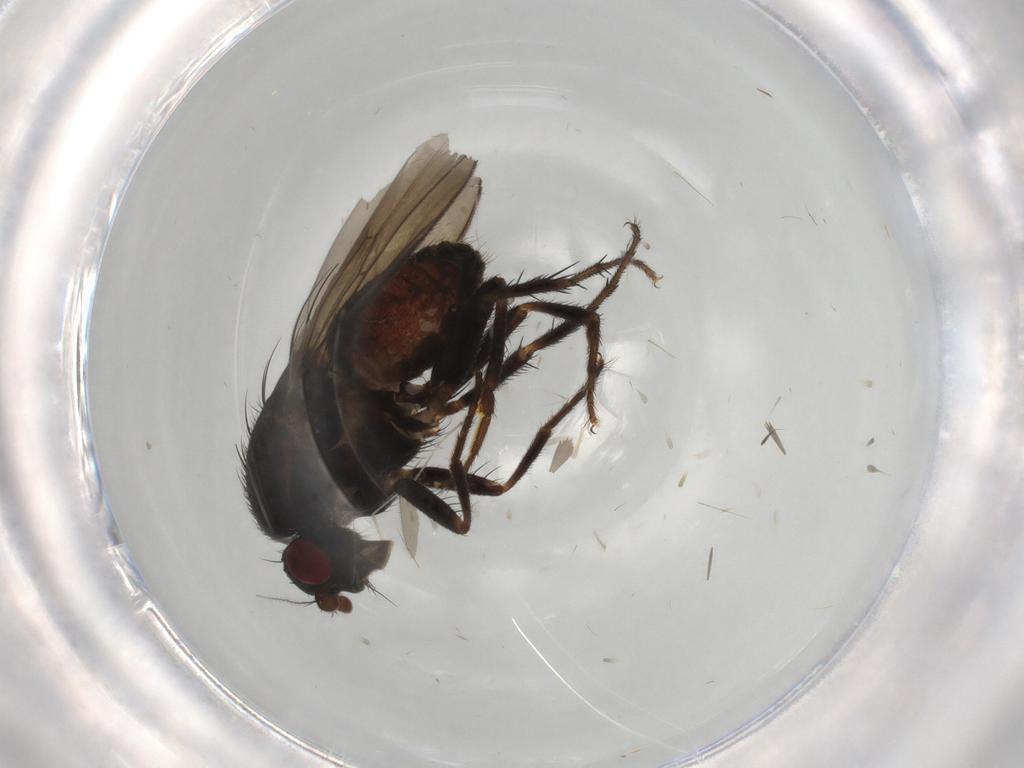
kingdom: Animalia
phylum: Arthropoda
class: Insecta
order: Diptera
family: Sphaeroceridae
